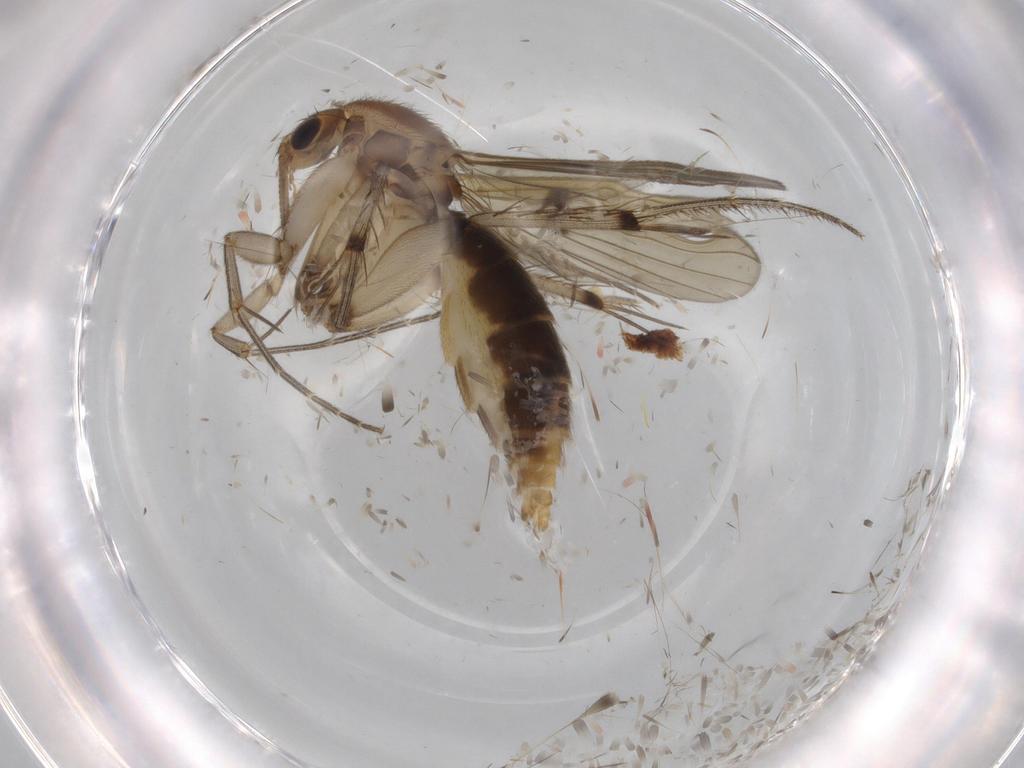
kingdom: Animalia
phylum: Arthropoda
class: Insecta
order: Diptera
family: Mycetophilidae
